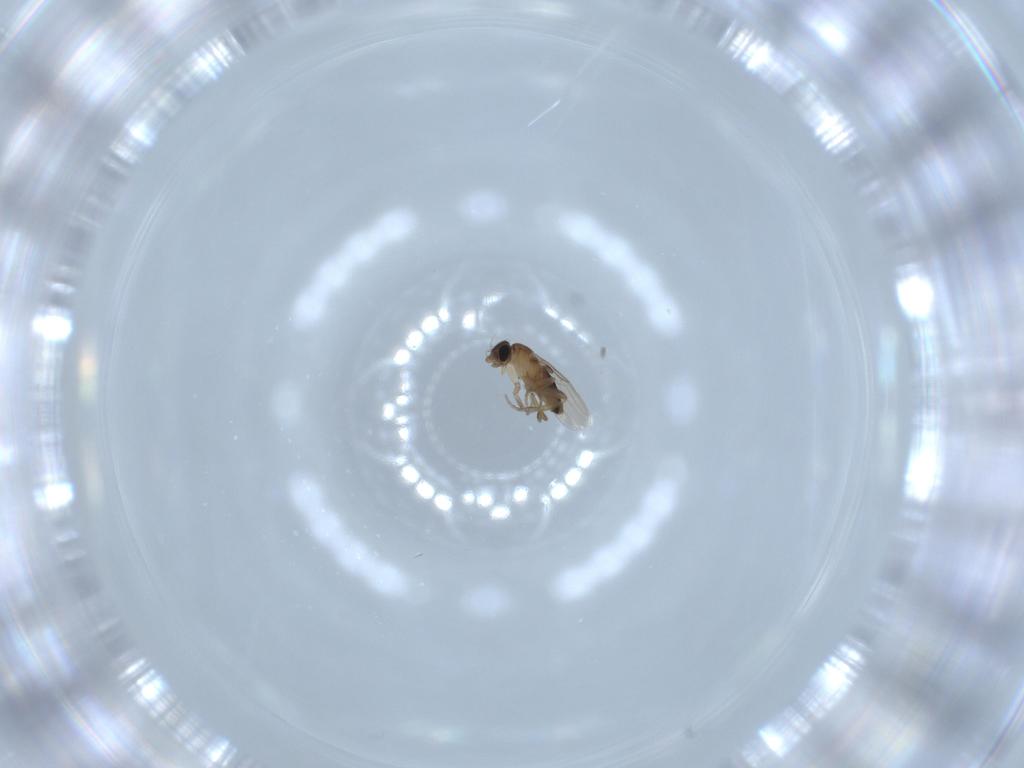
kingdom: Animalia
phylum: Arthropoda
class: Insecta
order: Diptera
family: Phoridae
